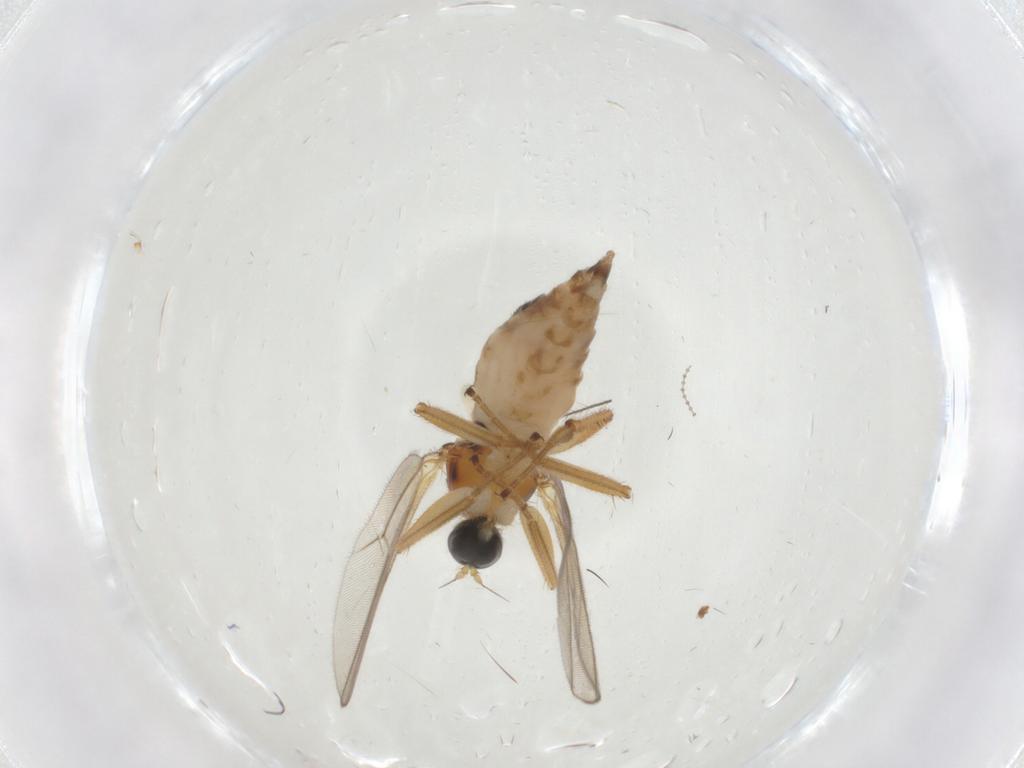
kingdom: Animalia
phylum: Arthropoda
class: Insecta
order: Diptera
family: Hybotidae
